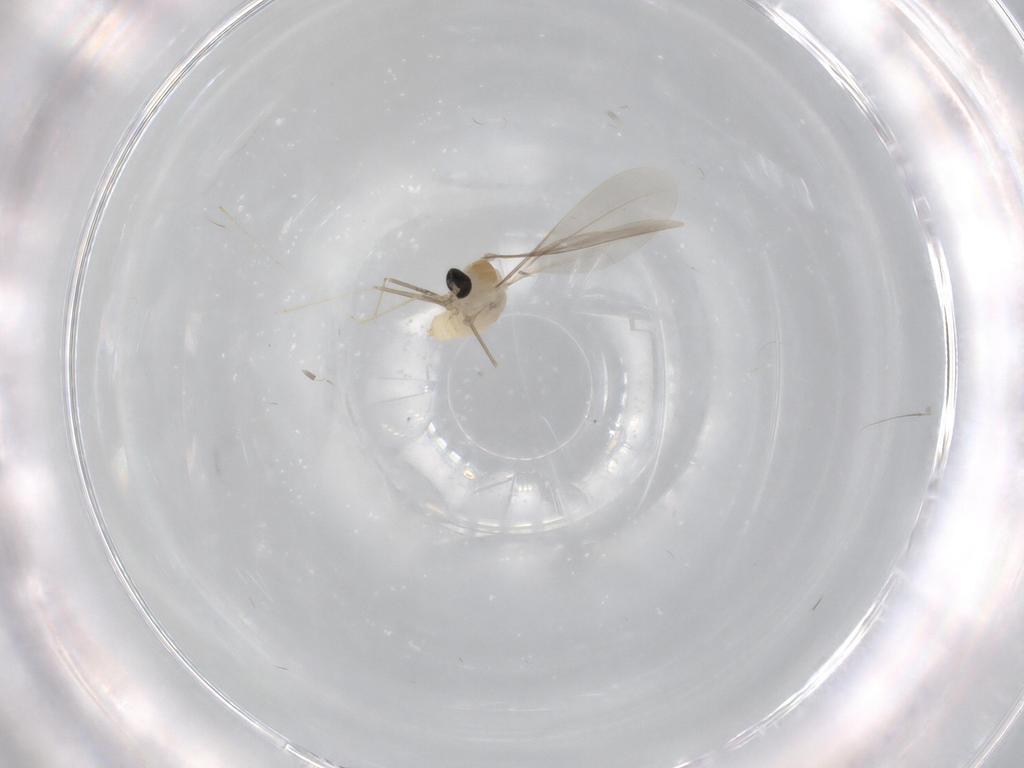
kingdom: Animalia
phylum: Arthropoda
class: Insecta
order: Diptera
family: Cecidomyiidae
